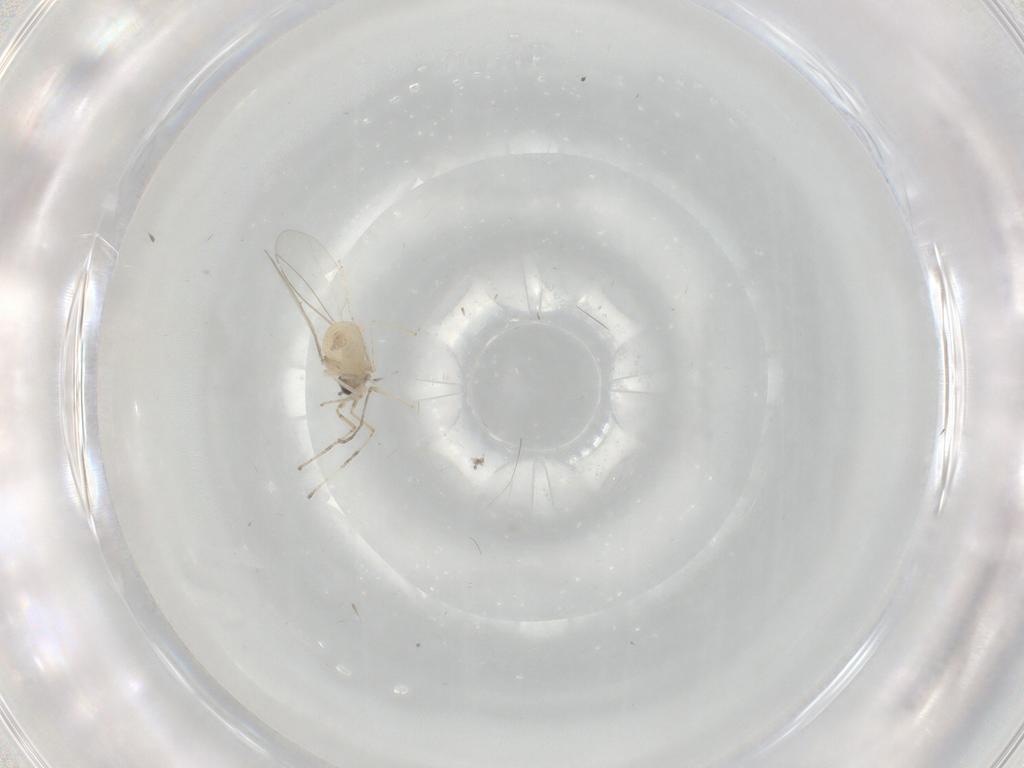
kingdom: Animalia
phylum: Arthropoda
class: Insecta
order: Diptera
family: Cecidomyiidae
